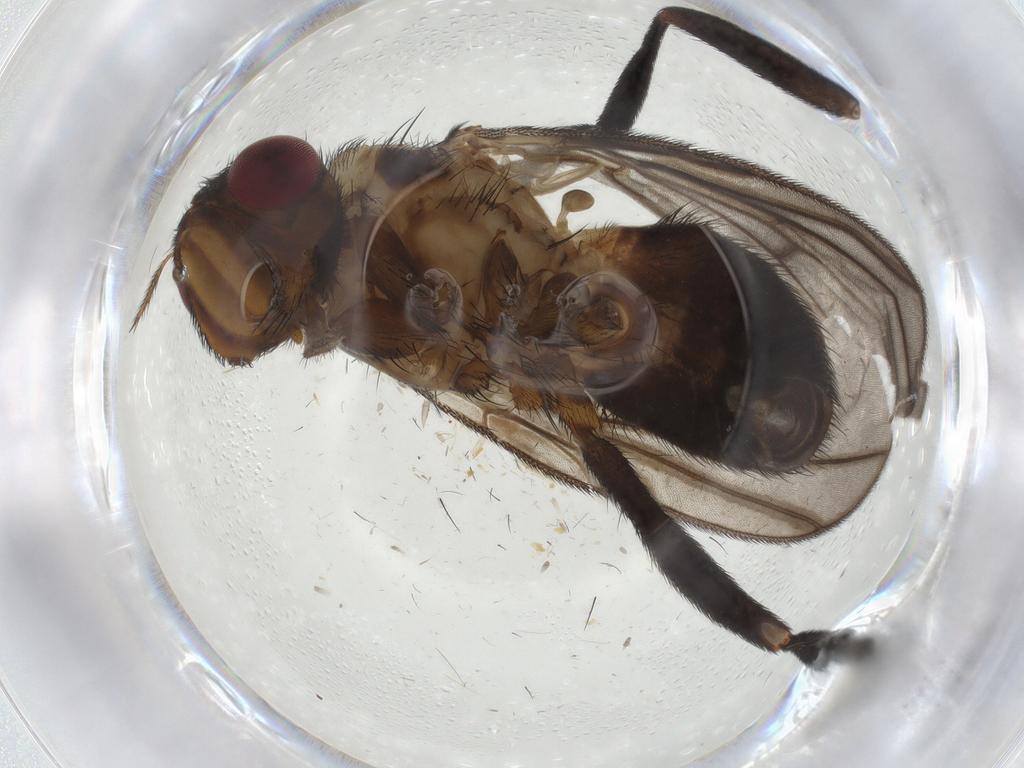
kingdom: Animalia
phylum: Arthropoda
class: Insecta
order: Diptera
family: Calliphoridae
